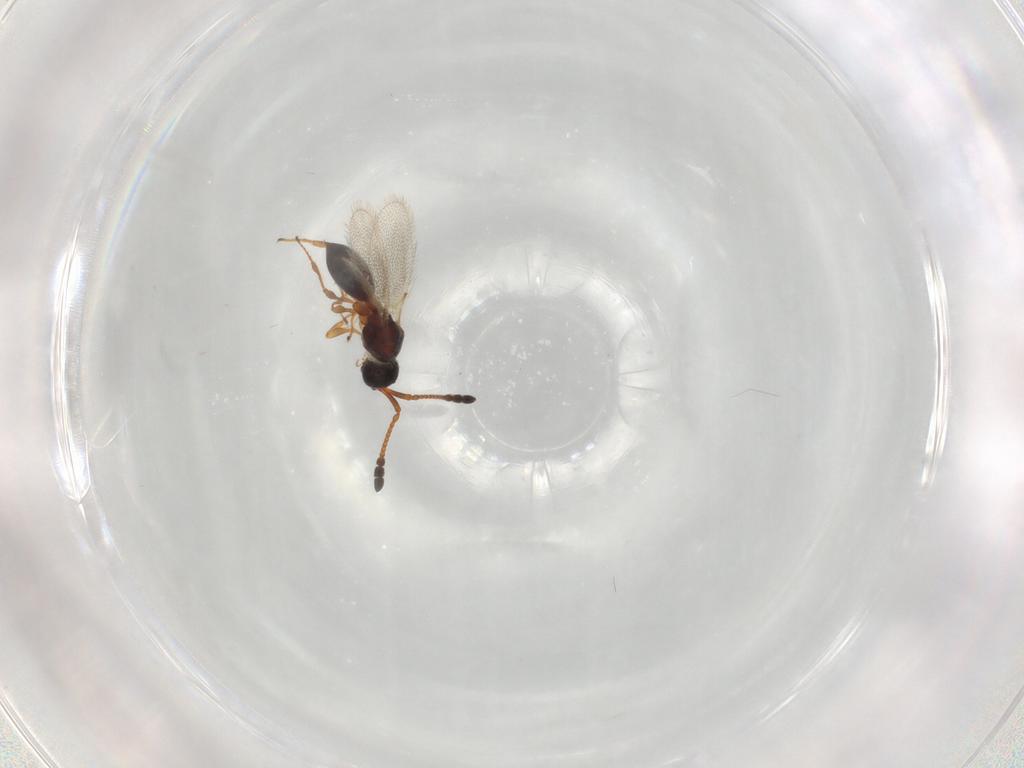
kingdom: Animalia
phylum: Arthropoda
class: Insecta
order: Hymenoptera
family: Diapriidae
